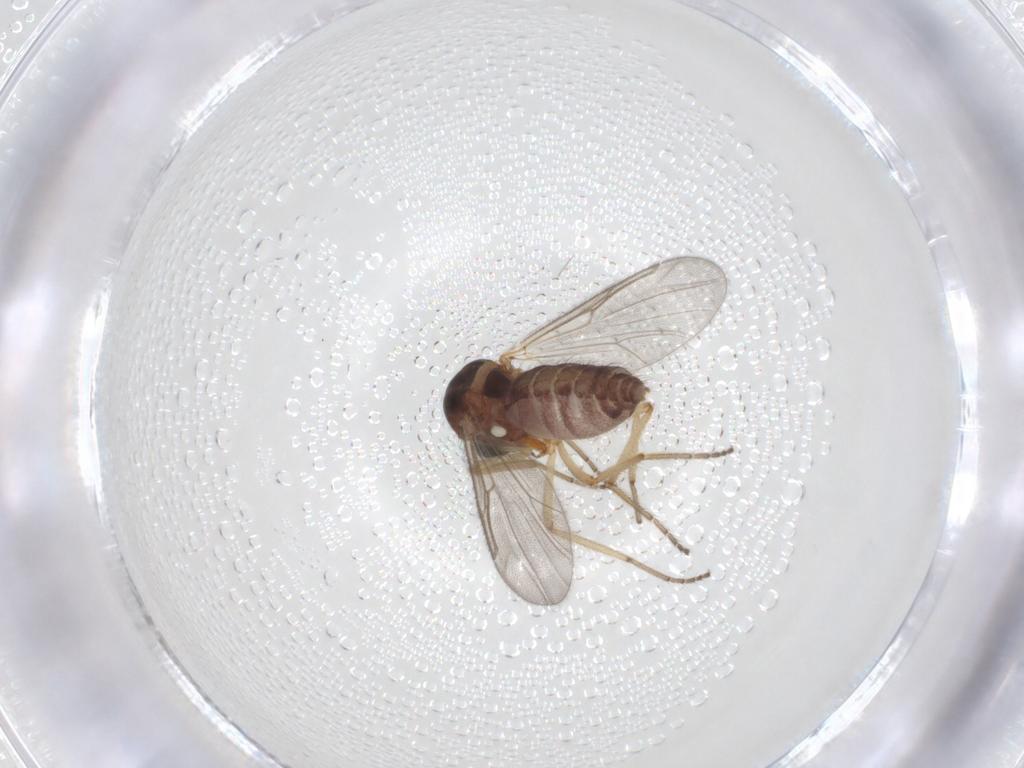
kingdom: Animalia
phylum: Arthropoda
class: Insecta
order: Diptera
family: Ceratopogonidae
